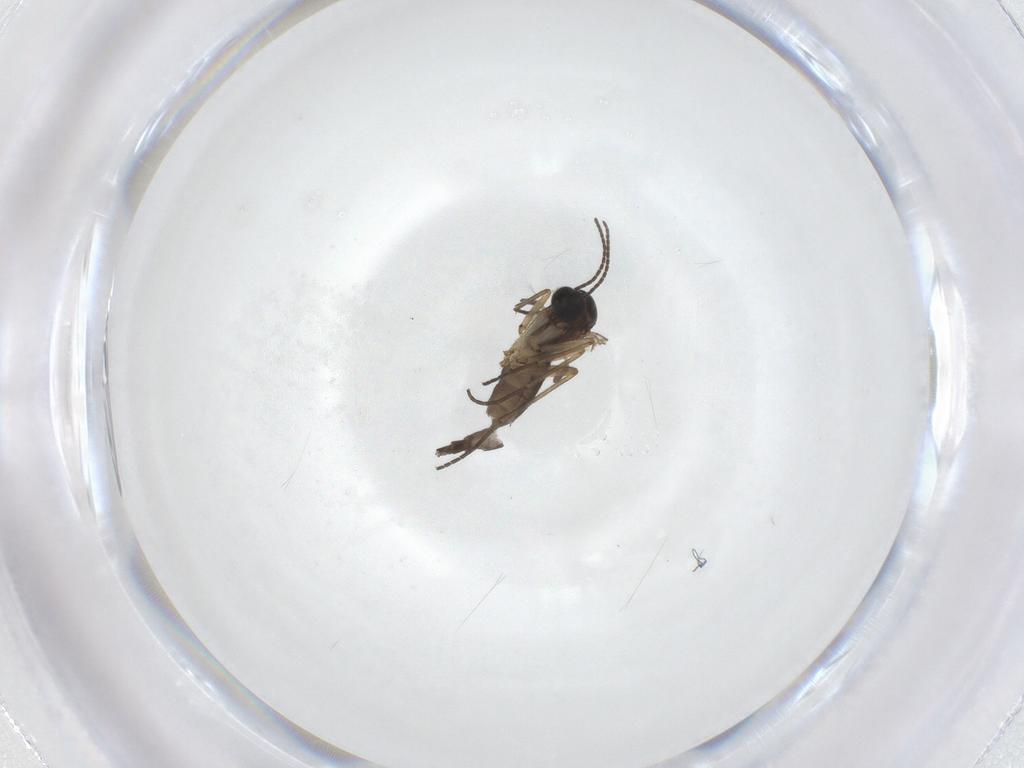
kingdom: Animalia
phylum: Arthropoda
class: Insecta
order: Diptera
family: Sciaridae
